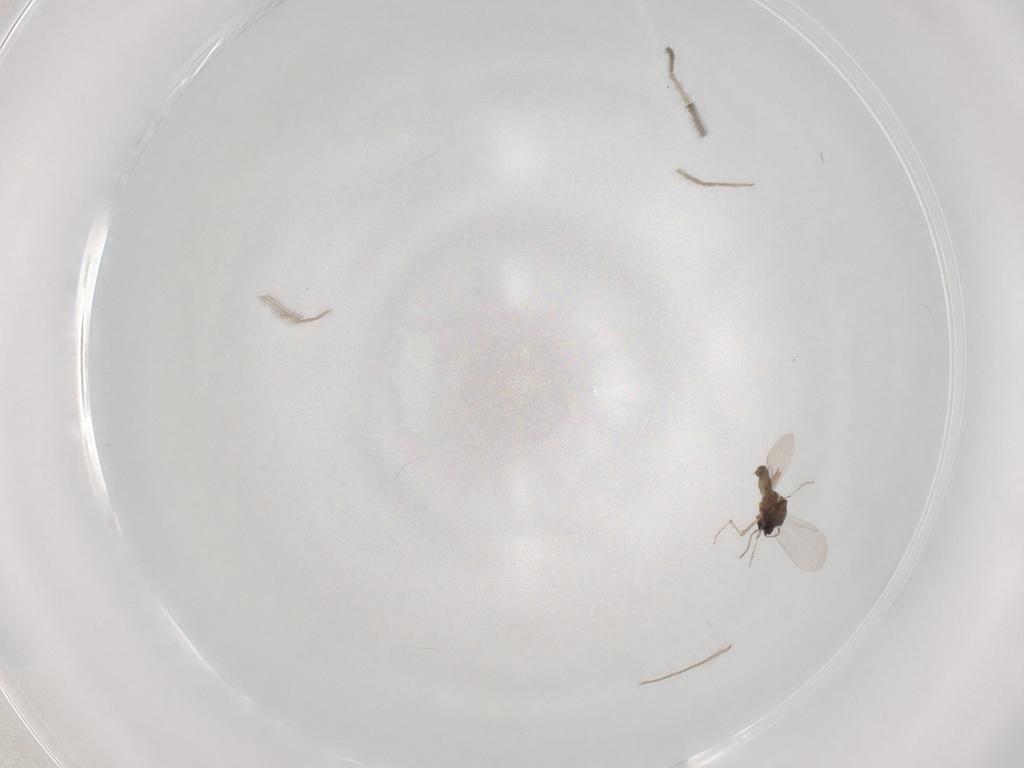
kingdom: Animalia
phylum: Arthropoda
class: Insecta
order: Diptera
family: Ceratopogonidae
